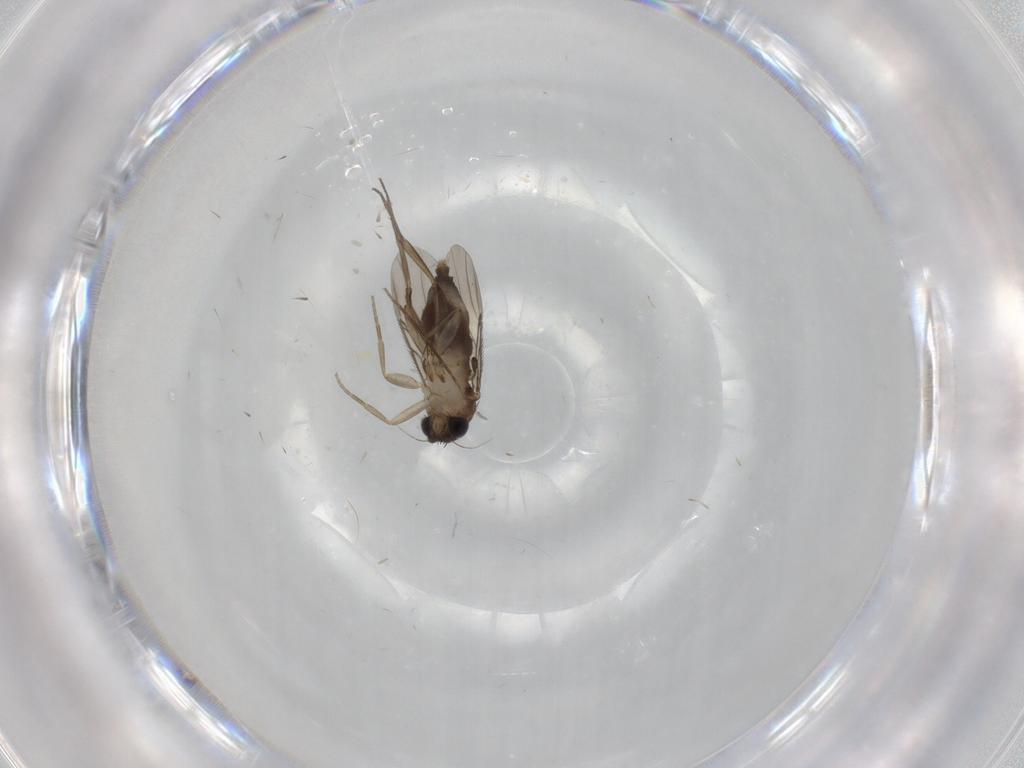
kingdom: Animalia
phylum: Arthropoda
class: Insecta
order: Diptera
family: Phoridae
